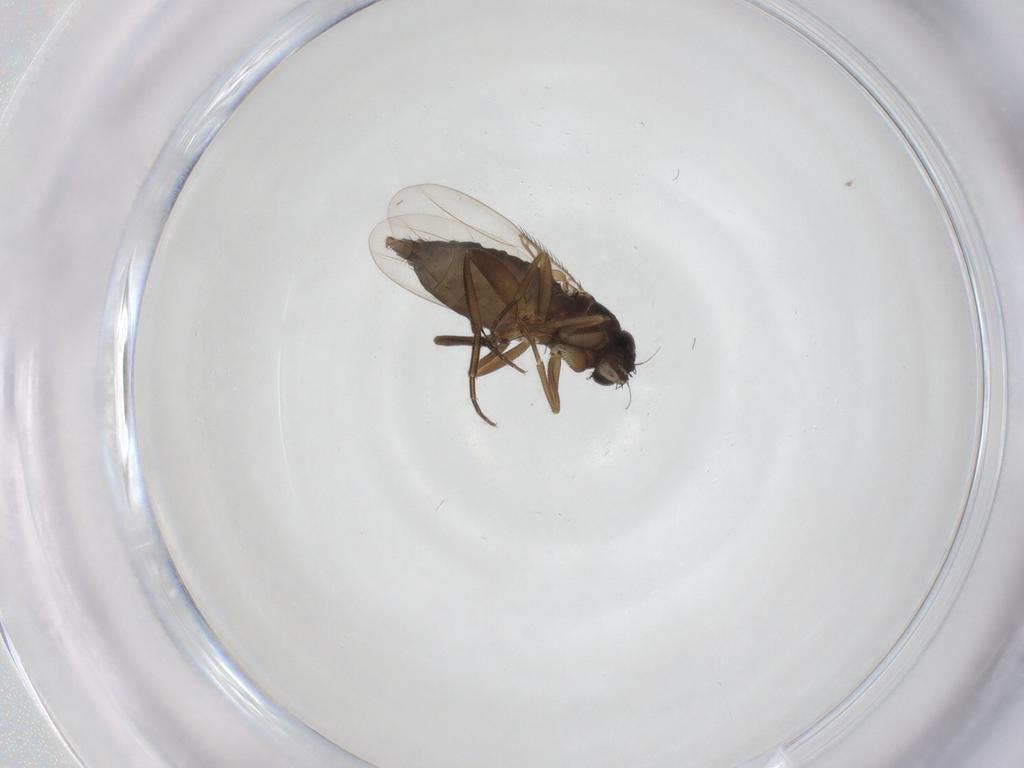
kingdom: Animalia
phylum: Arthropoda
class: Insecta
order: Diptera
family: Phoridae
